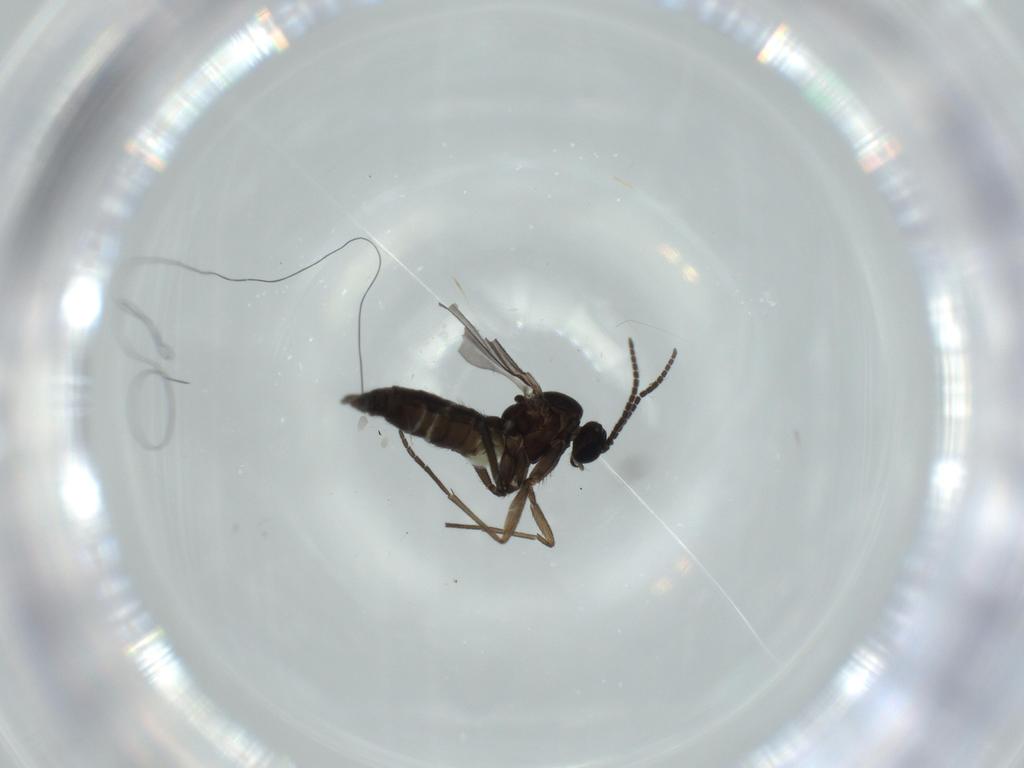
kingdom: Animalia
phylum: Arthropoda
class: Insecta
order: Diptera
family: Sciaridae
